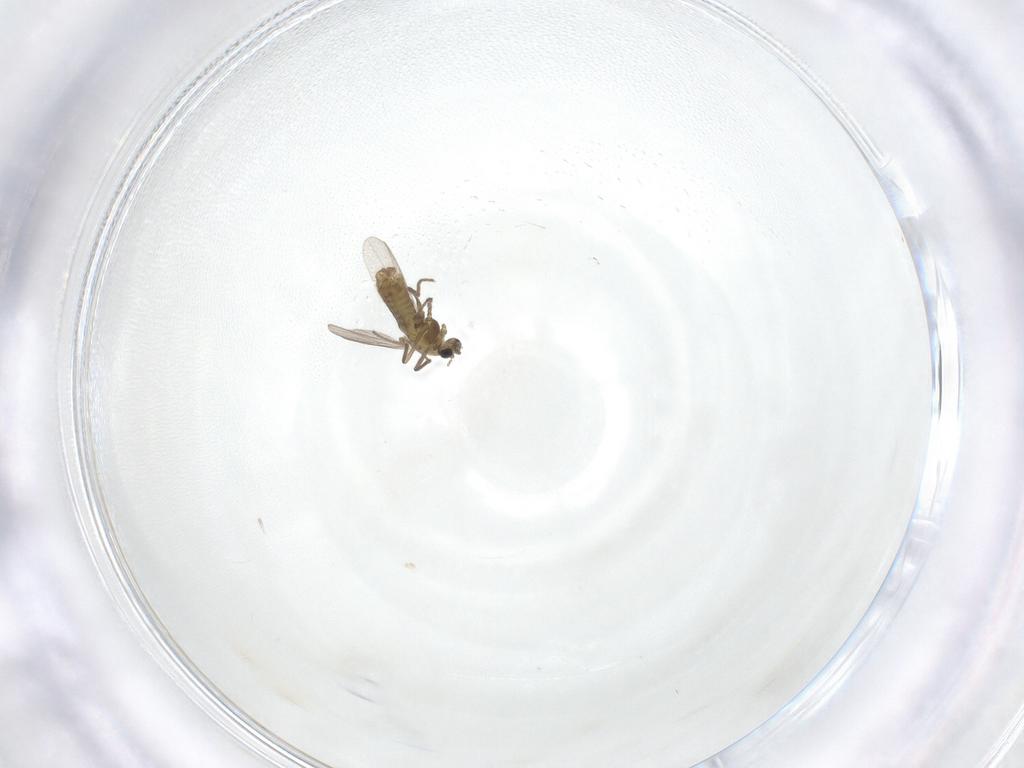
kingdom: Animalia
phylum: Arthropoda
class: Insecta
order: Diptera
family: Chironomidae
